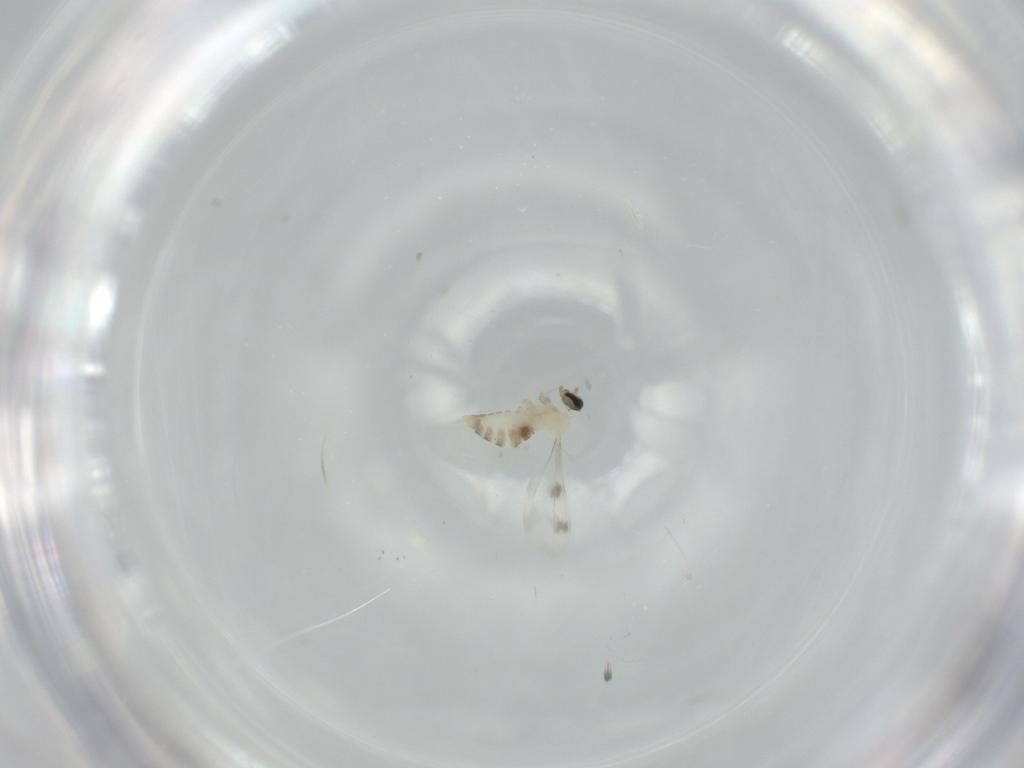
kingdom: Animalia
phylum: Arthropoda
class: Insecta
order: Diptera
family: Cecidomyiidae
